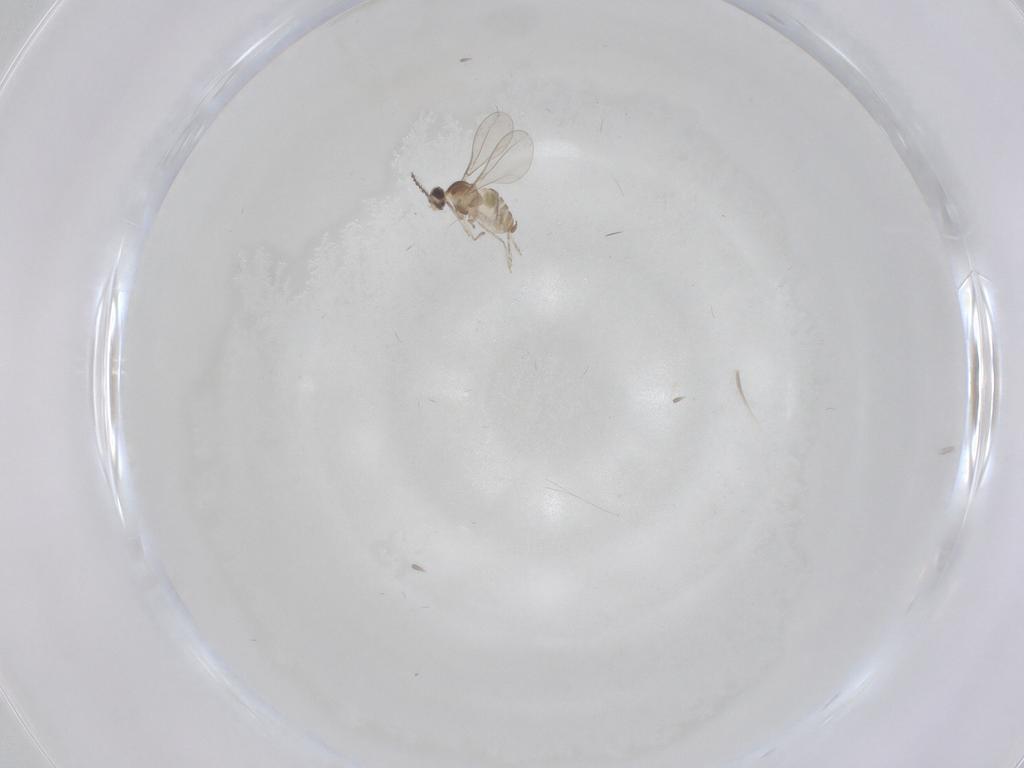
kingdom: Animalia
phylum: Arthropoda
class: Insecta
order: Diptera
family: Cecidomyiidae
